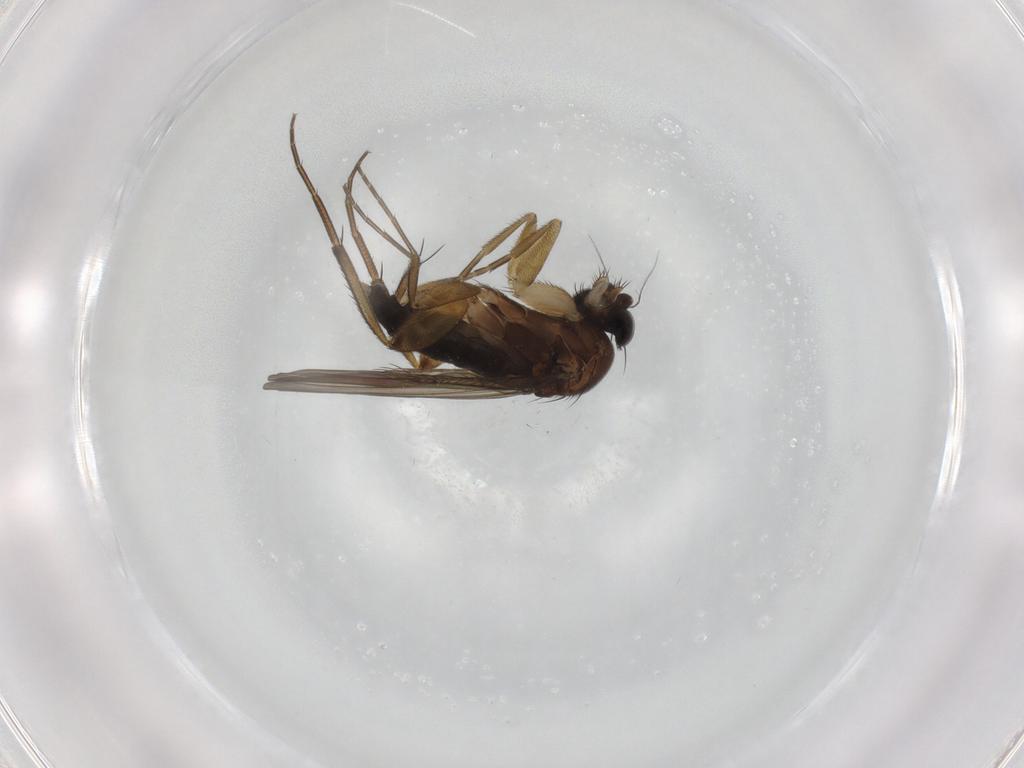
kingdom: Animalia
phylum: Arthropoda
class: Insecta
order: Diptera
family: Phoridae
